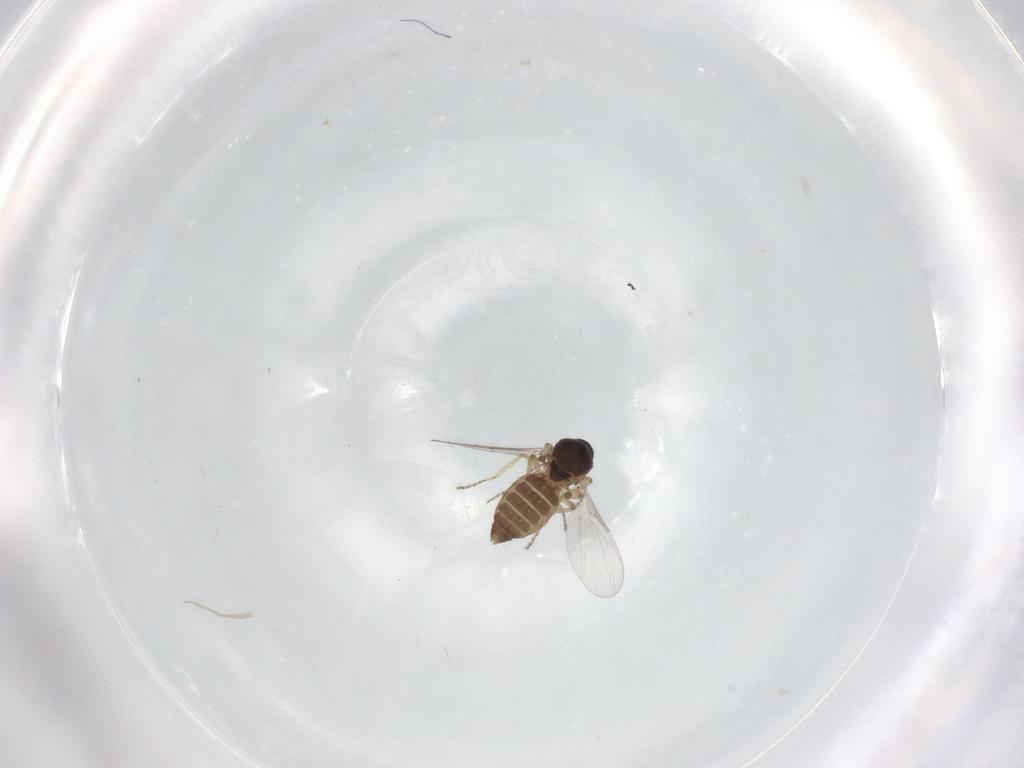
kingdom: Animalia
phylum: Arthropoda
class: Insecta
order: Diptera
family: Ceratopogonidae
